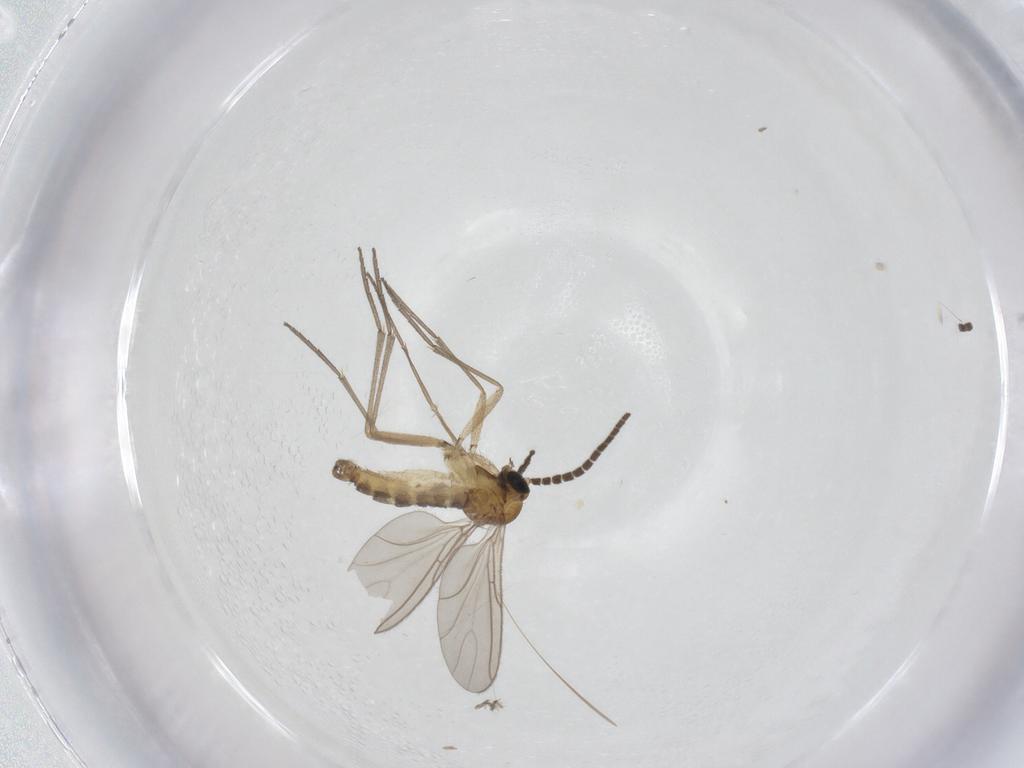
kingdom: Animalia
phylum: Arthropoda
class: Insecta
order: Diptera
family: Sciaridae
